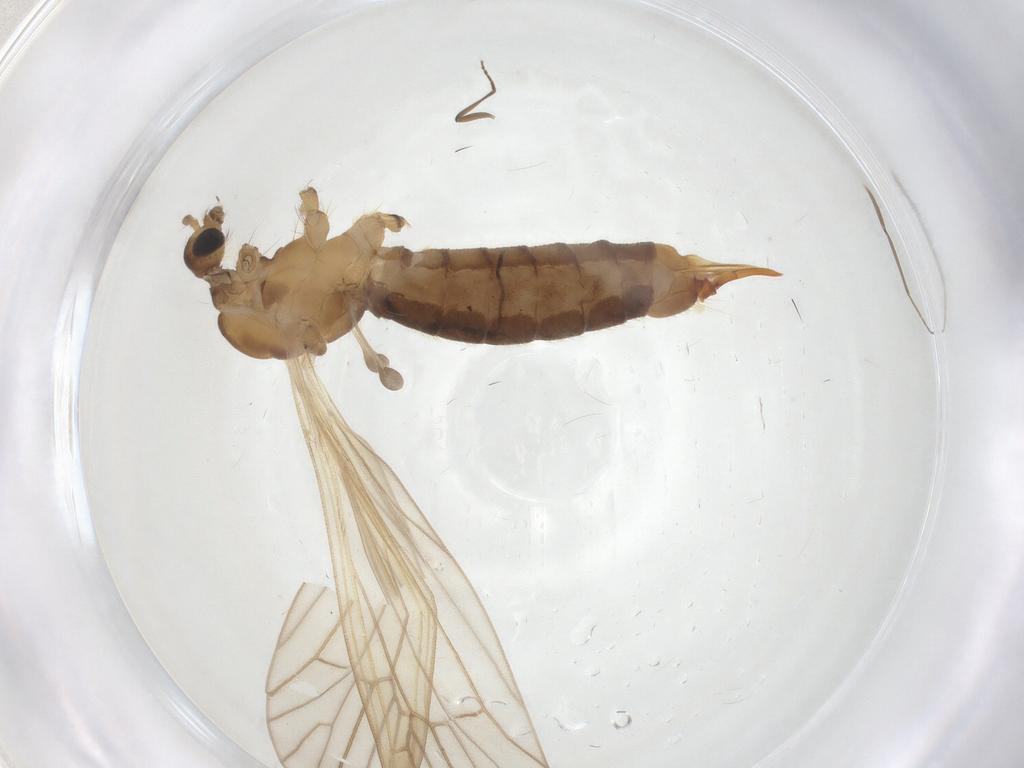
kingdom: Animalia
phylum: Arthropoda
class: Insecta
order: Diptera
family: Limoniidae
